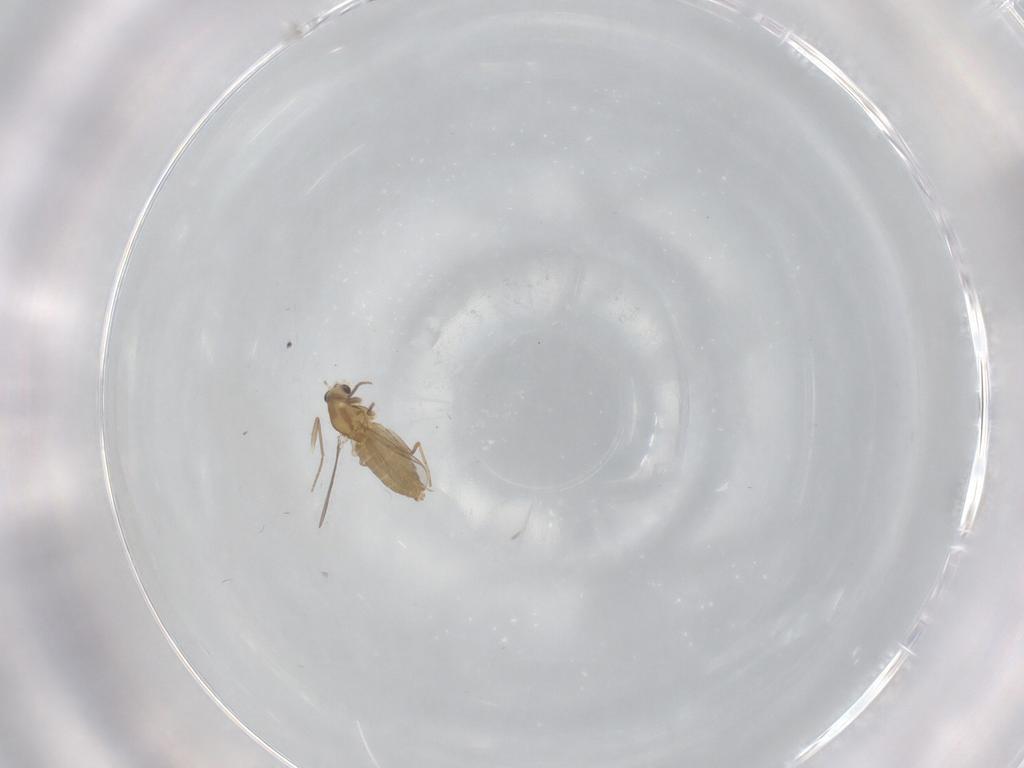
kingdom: Animalia
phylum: Arthropoda
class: Insecta
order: Diptera
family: Chironomidae
